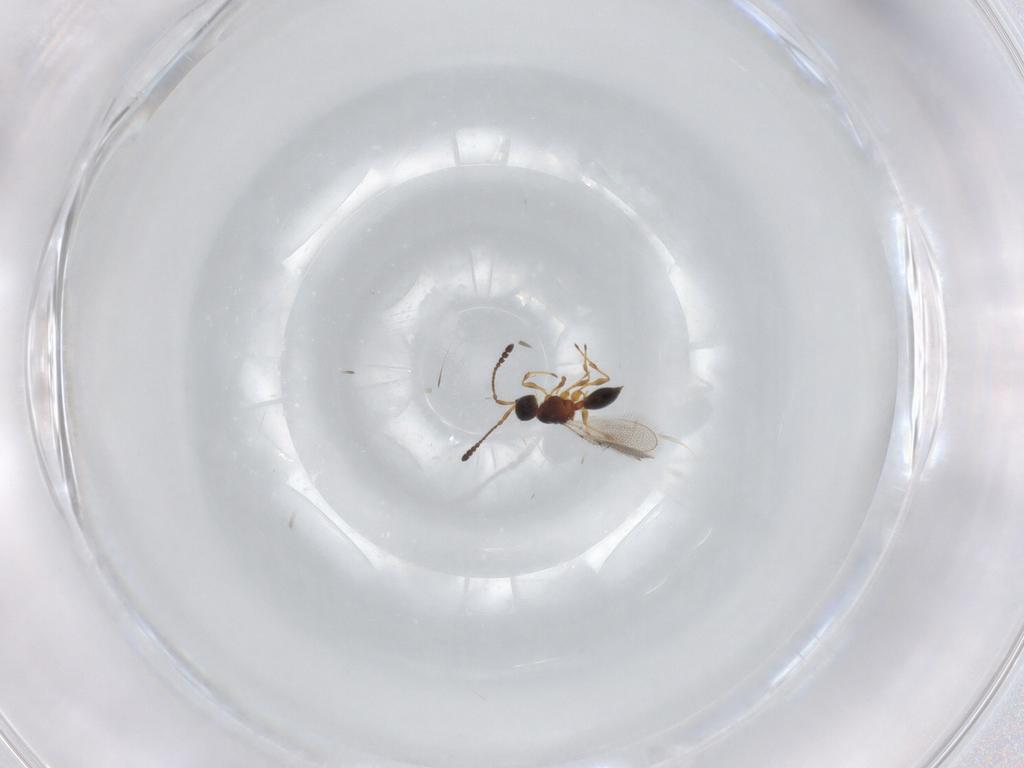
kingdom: Animalia
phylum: Arthropoda
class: Insecta
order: Hymenoptera
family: Diapriidae
